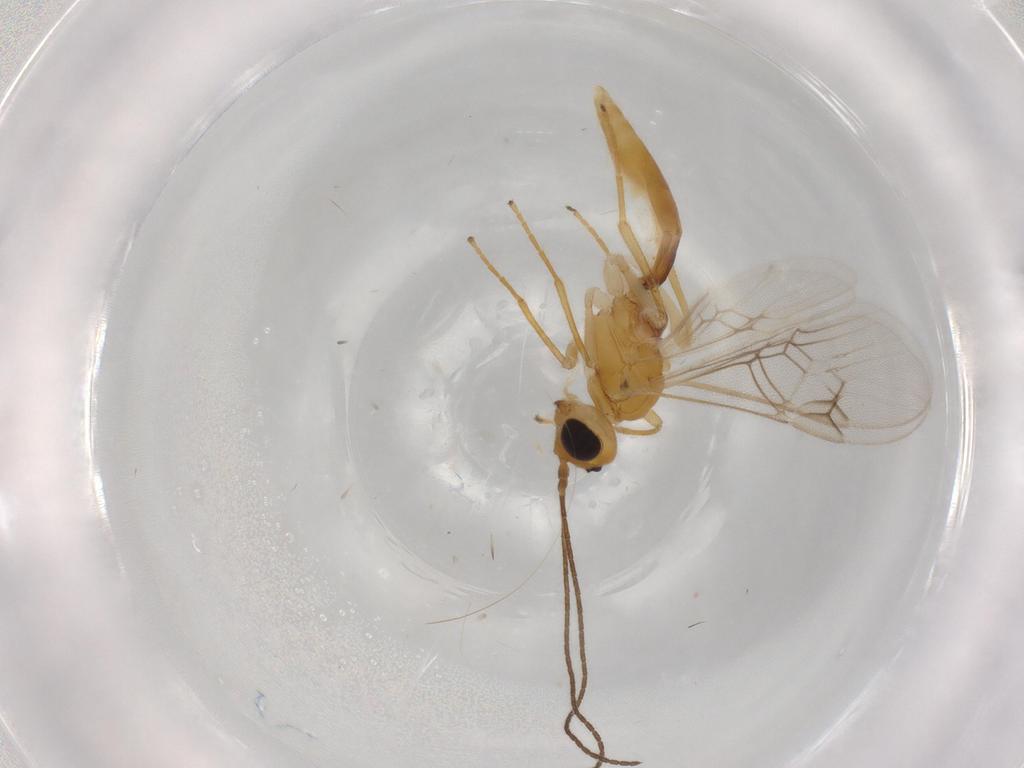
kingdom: Animalia
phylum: Arthropoda
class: Insecta
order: Hymenoptera
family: Braconidae
